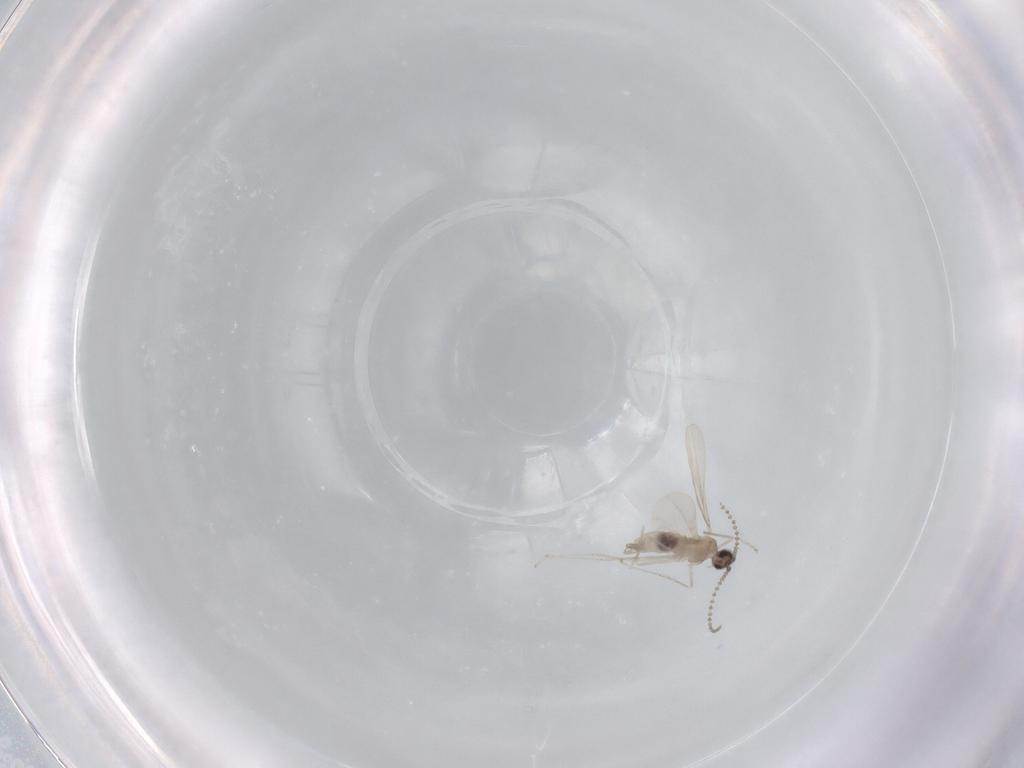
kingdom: Animalia
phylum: Arthropoda
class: Insecta
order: Diptera
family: Cecidomyiidae
